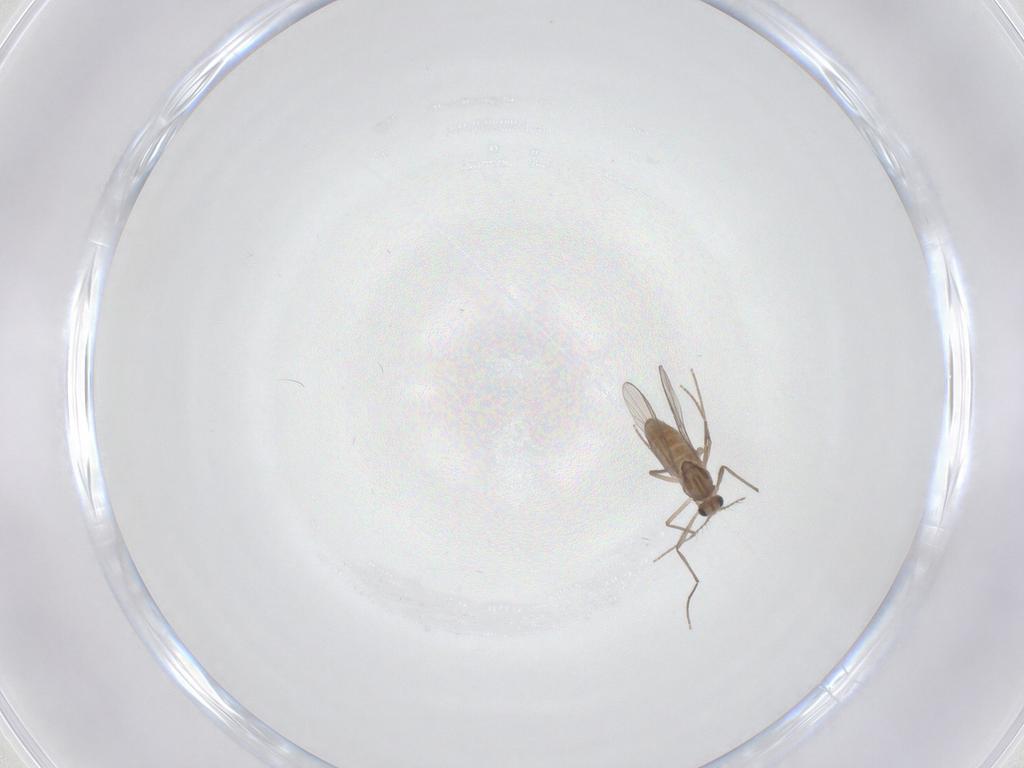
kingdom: Animalia
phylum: Arthropoda
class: Insecta
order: Diptera
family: Chironomidae
